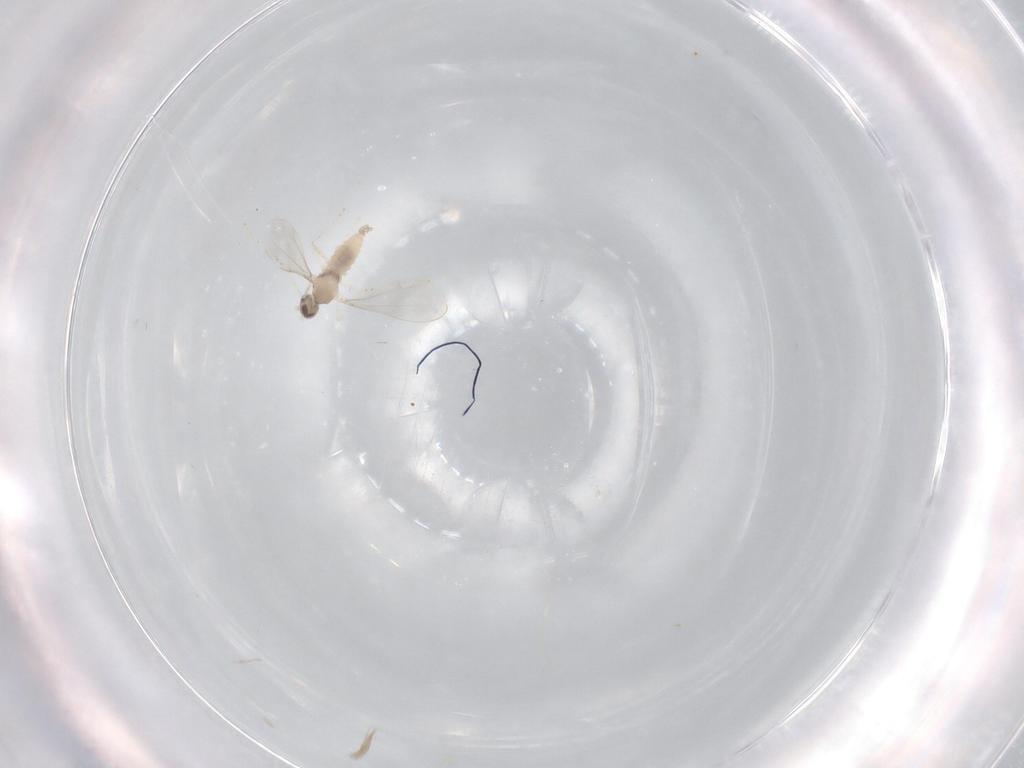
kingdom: Animalia
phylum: Arthropoda
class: Insecta
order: Diptera
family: Cecidomyiidae
